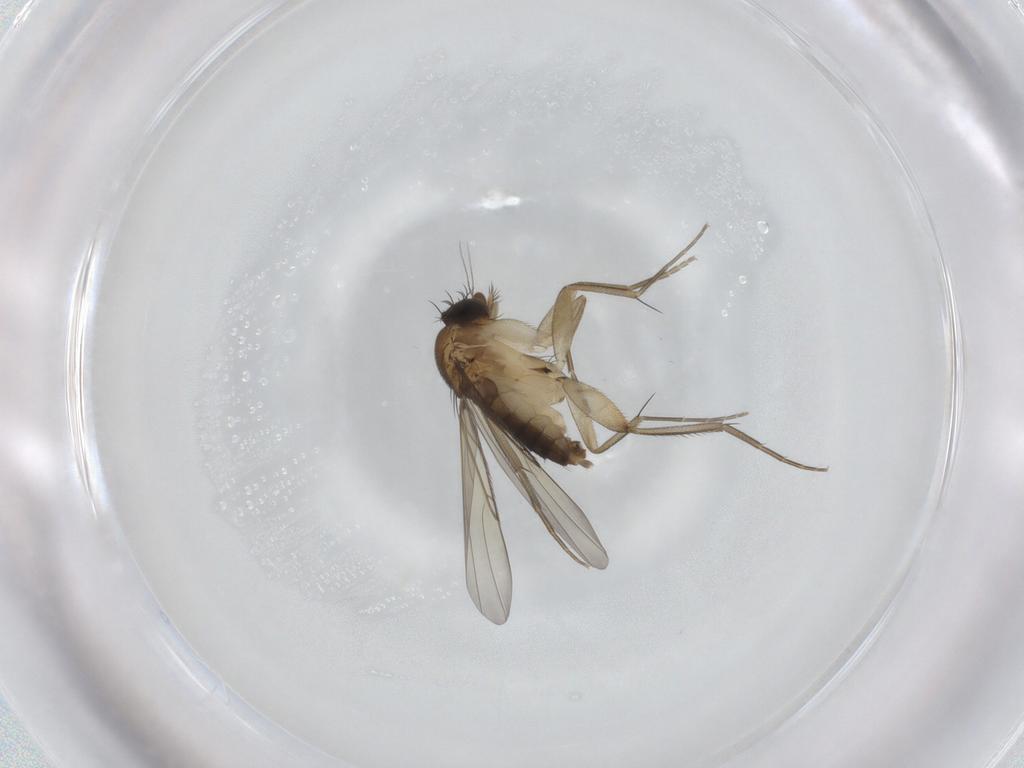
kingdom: Animalia
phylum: Arthropoda
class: Insecta
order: Diptera
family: Phoridae
